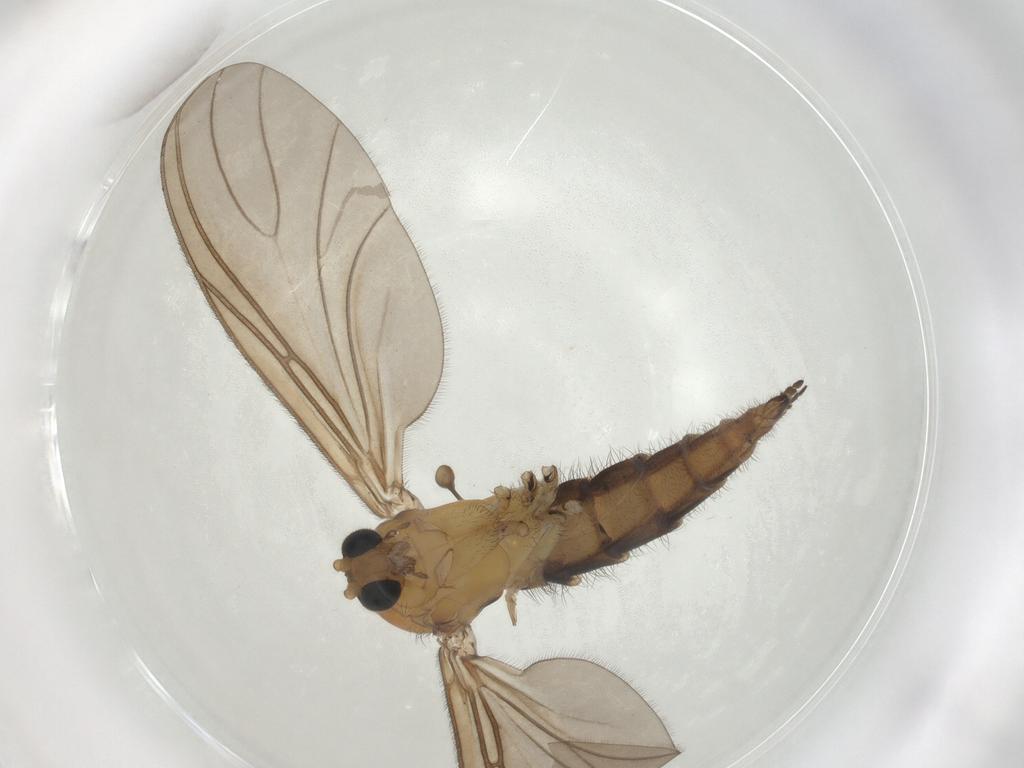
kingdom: Animalia
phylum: Arthropoda
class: Insecta
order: Diptera
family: Sciaridae
